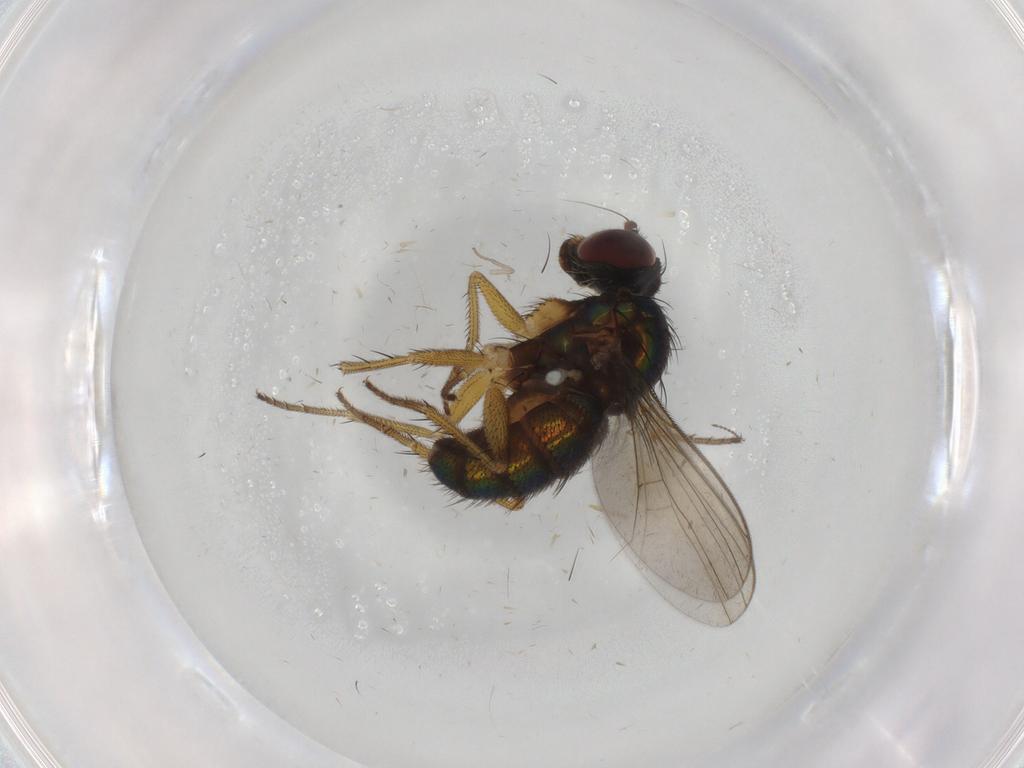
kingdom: Animalia
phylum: Arthropoda
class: Insecta
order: Diptera
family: Dolichopodidae
